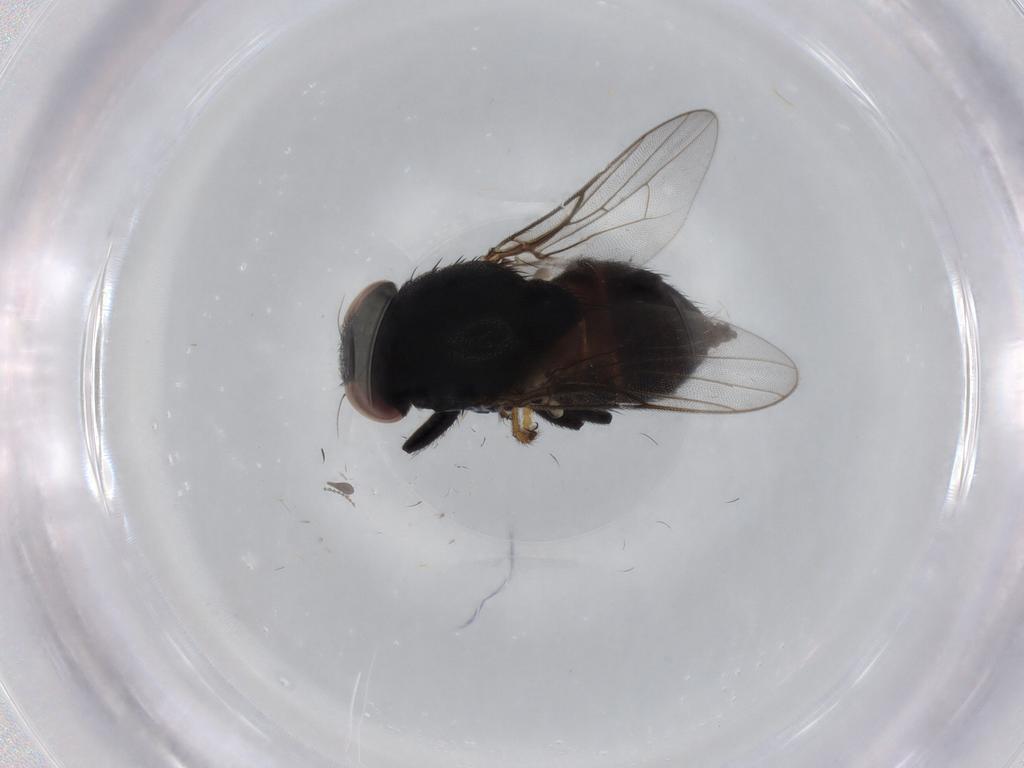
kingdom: Animalia
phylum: Arthropoda
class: Insecta
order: Diptera
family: Chloropidae
